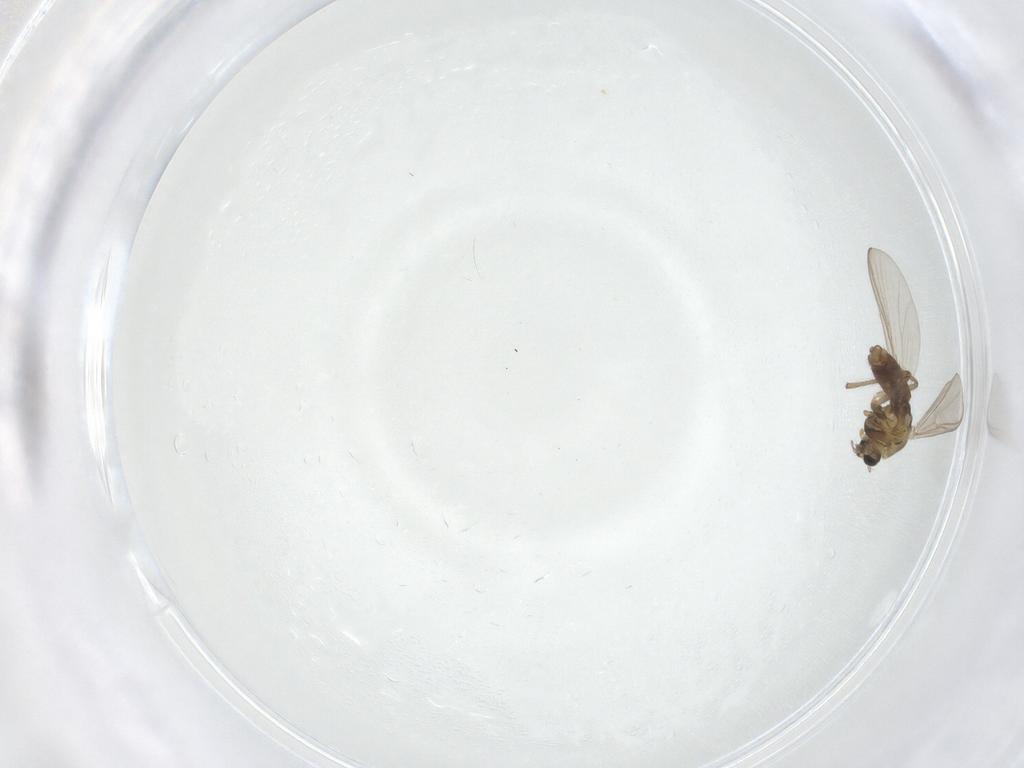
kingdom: Animalia
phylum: Arthropoda
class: Insecta
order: Diptera
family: Chironomidae
